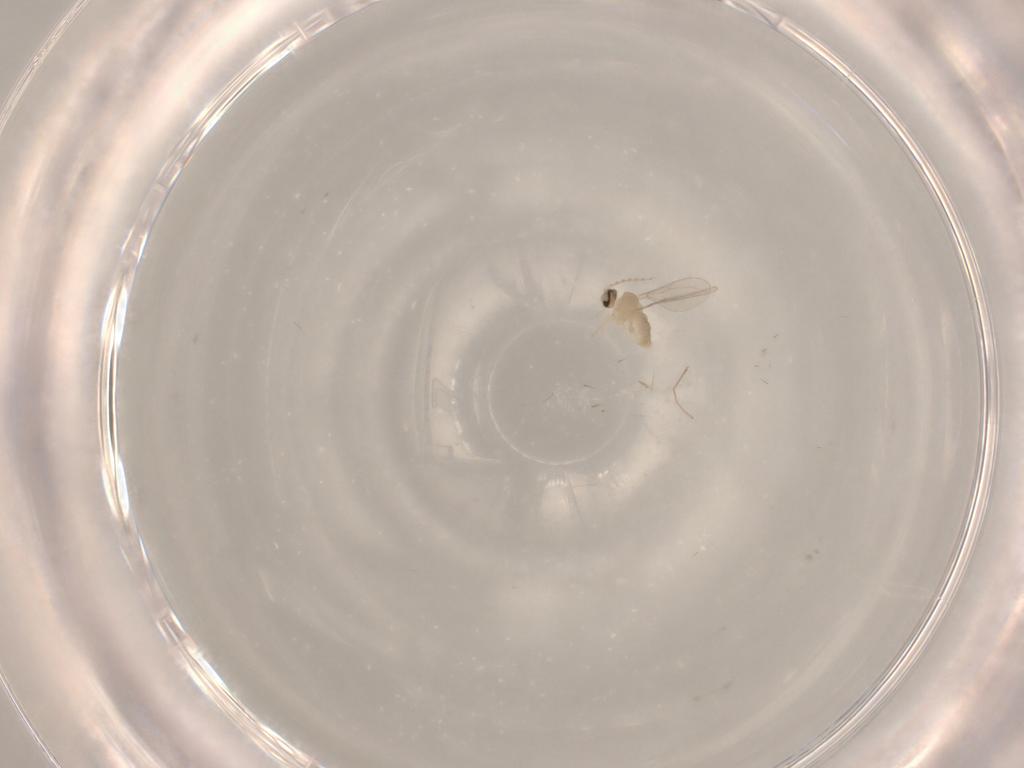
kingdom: Animalia
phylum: Arthropoda
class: Insecta
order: Diptera
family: Cecidomyiidae
